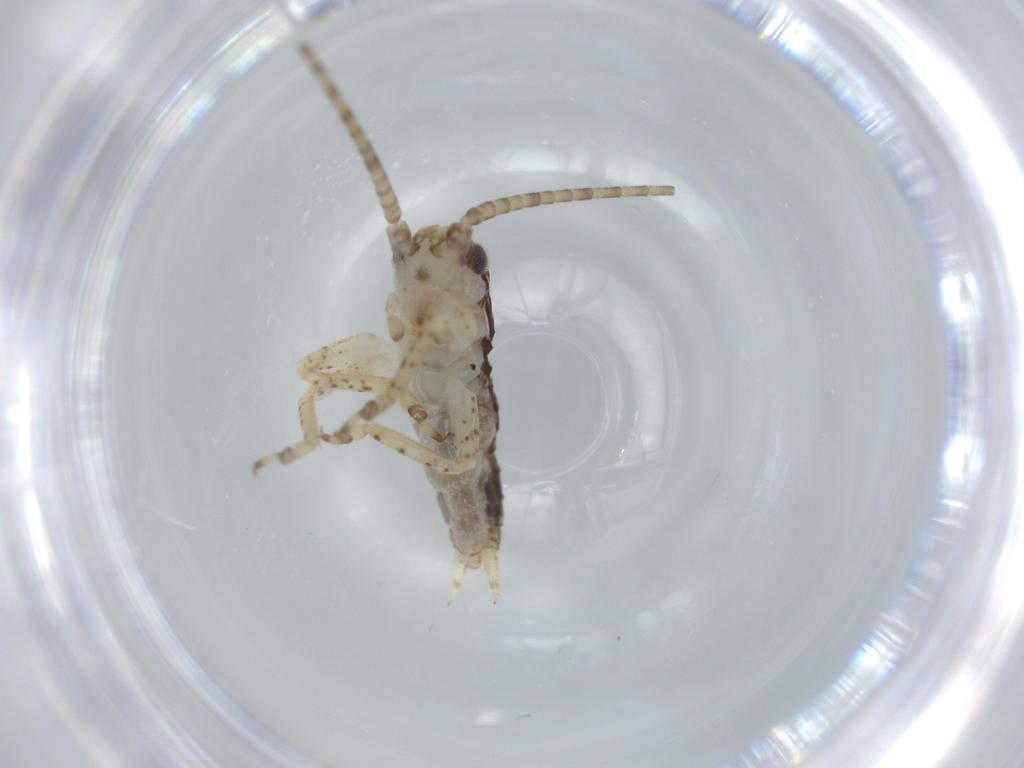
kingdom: Animalia
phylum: Arthropoda
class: Insecta
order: Orthoptera
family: Gryllidae
